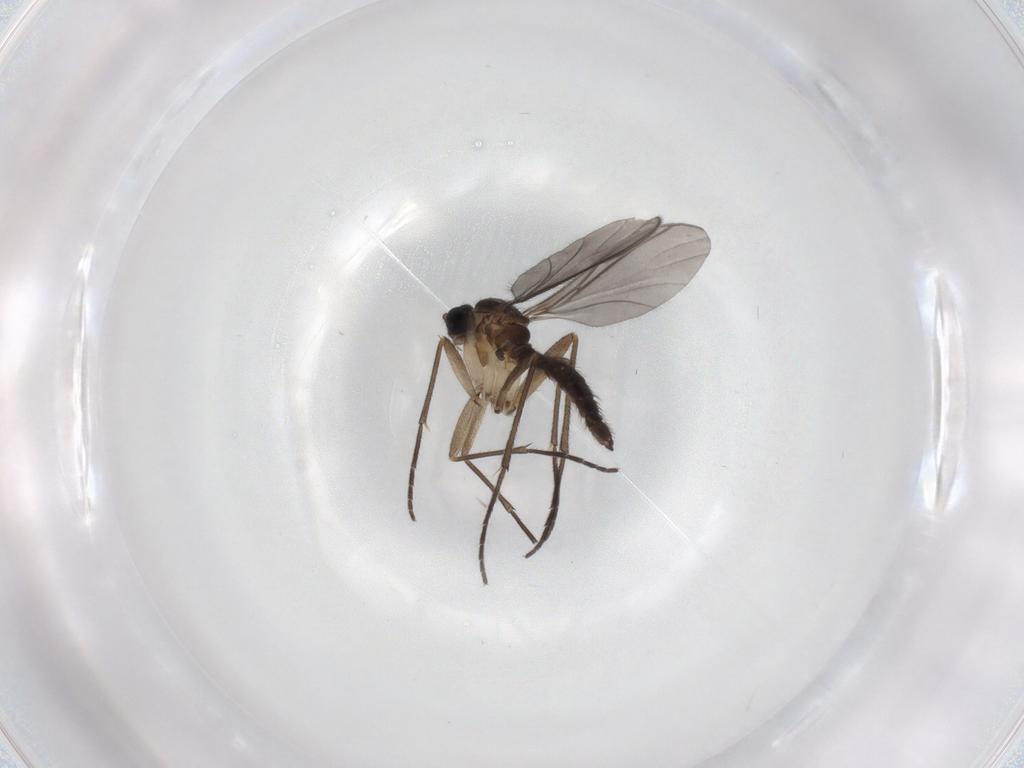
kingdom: Animalia
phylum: Arthropoda
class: Insecta
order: Diptera
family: Sciaridae
